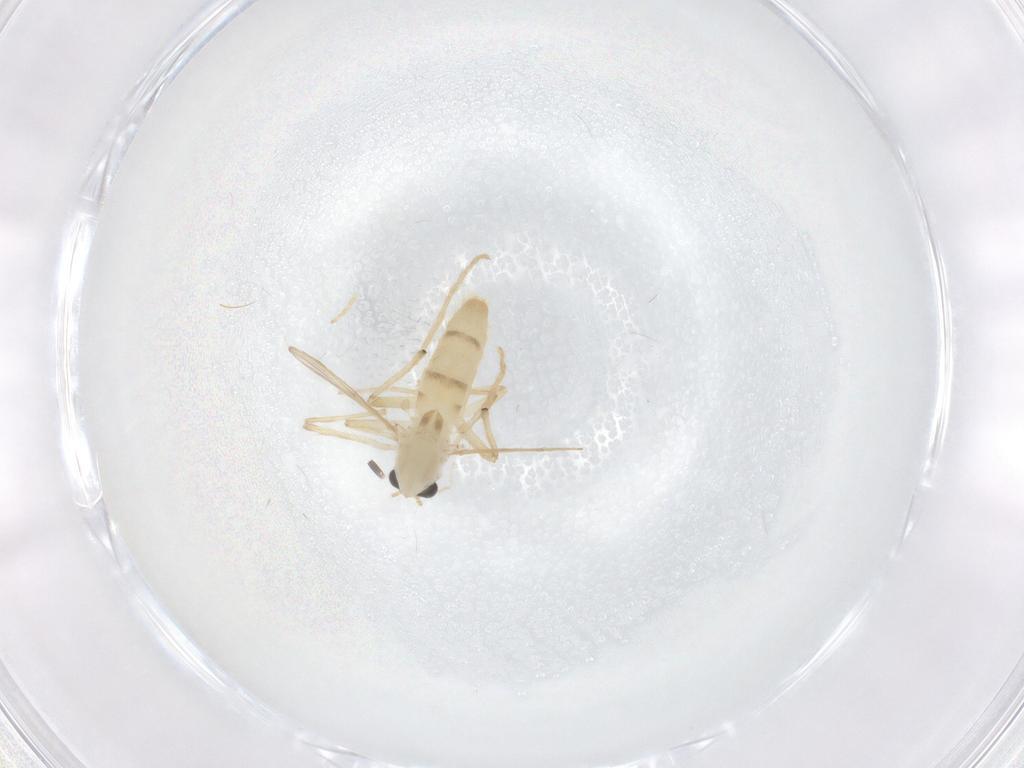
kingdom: Animalia
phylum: Arthropoda
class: Insecta
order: Diptera
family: Chironomidae
